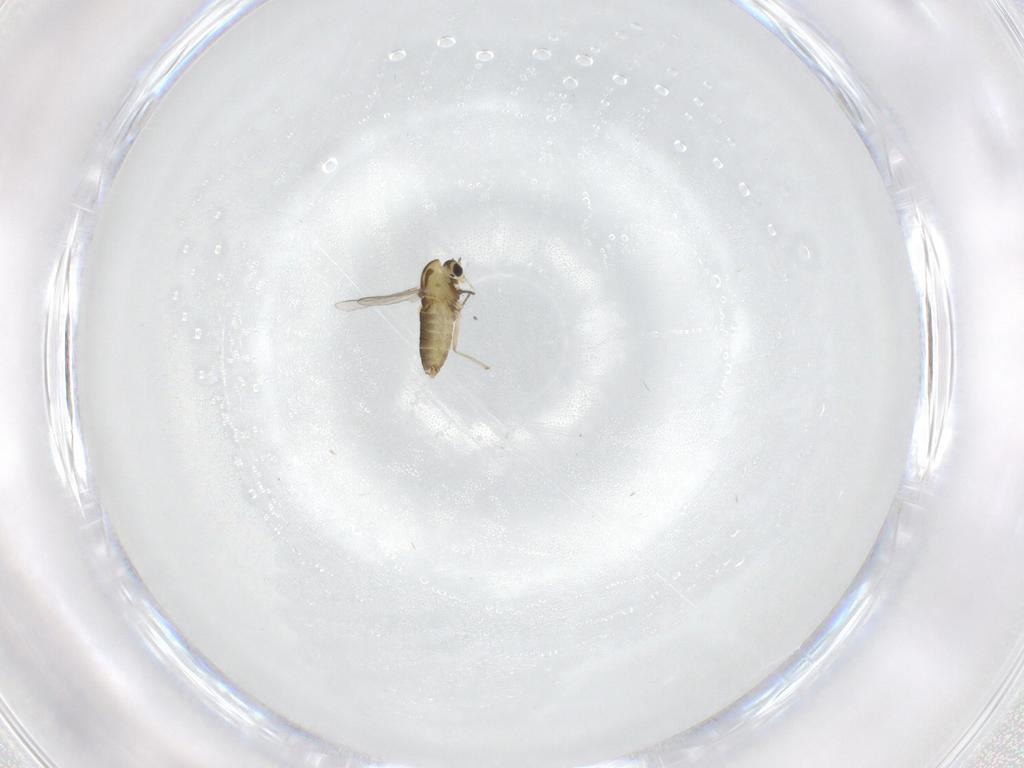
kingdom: Animalia
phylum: Arthropoda
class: Insecta
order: Diptera
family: Chironomidae
